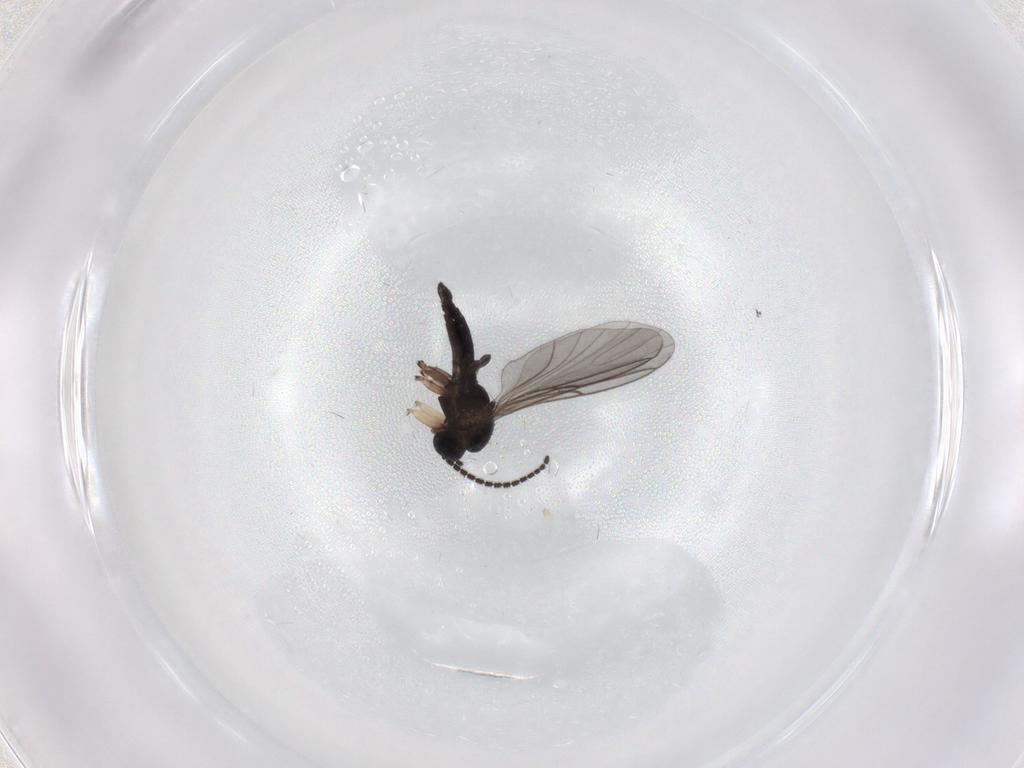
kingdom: Animalia
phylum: Arthropoda
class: Insecta
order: Diptera
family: Sciaridae
